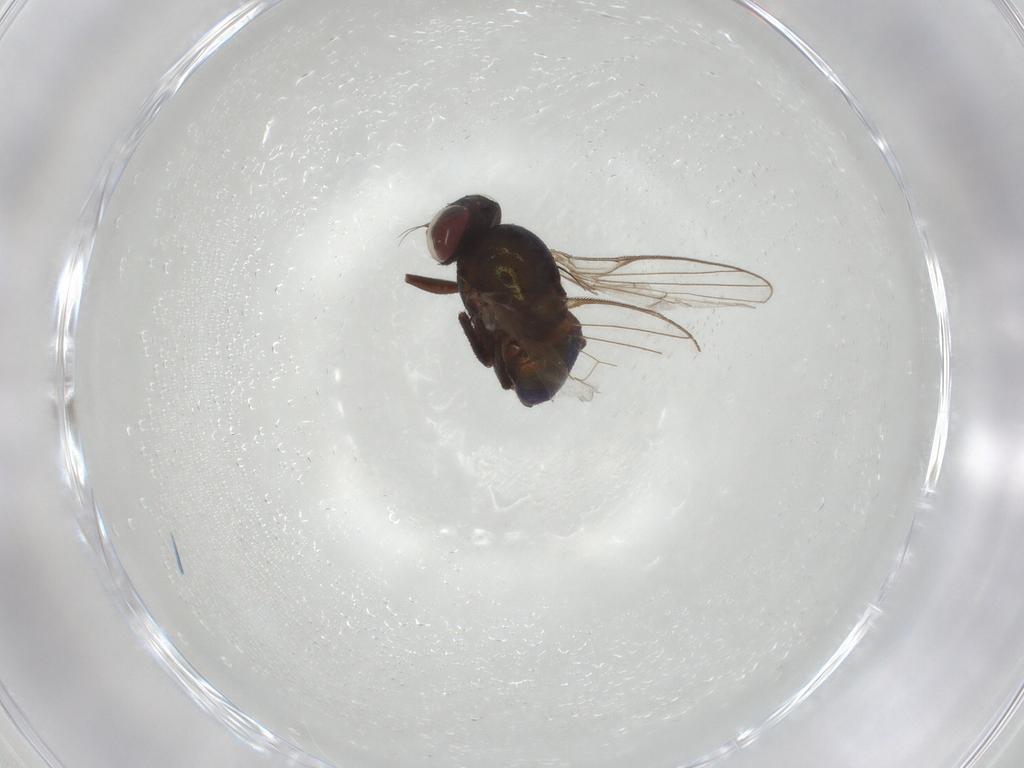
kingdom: Animalia
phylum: Arthropoda
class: Insecta
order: Diptera
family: Agromyzidae
